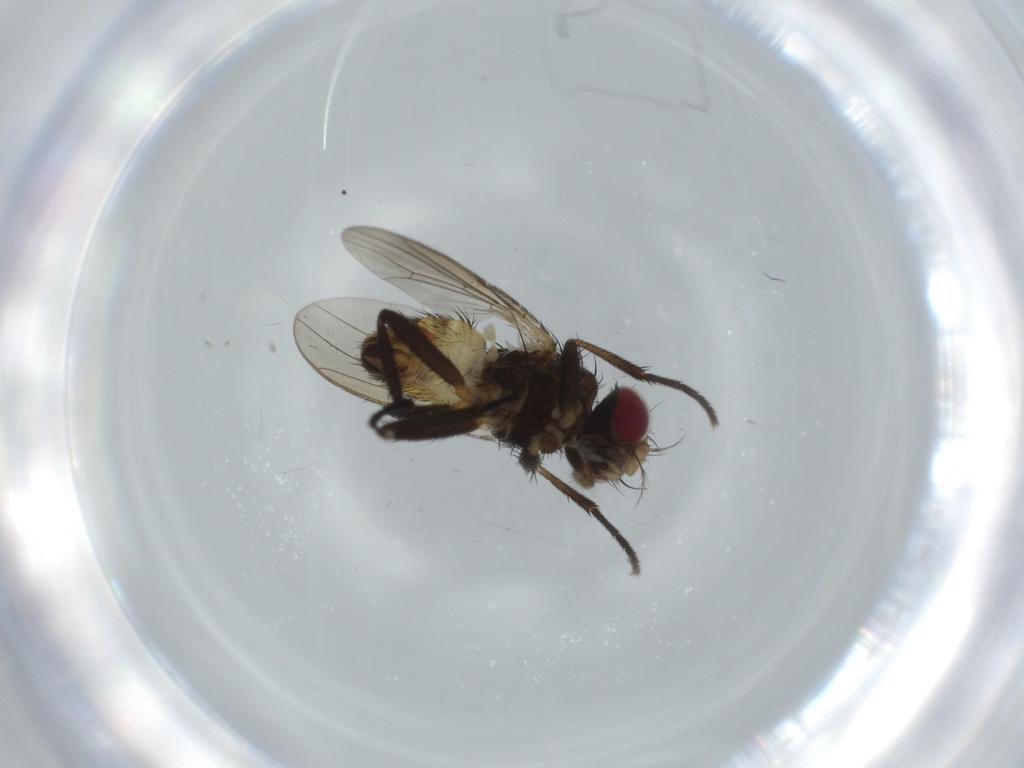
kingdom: Animalia
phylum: Arthropoda
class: Insecta
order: Diptera
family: Anthomyiidae
